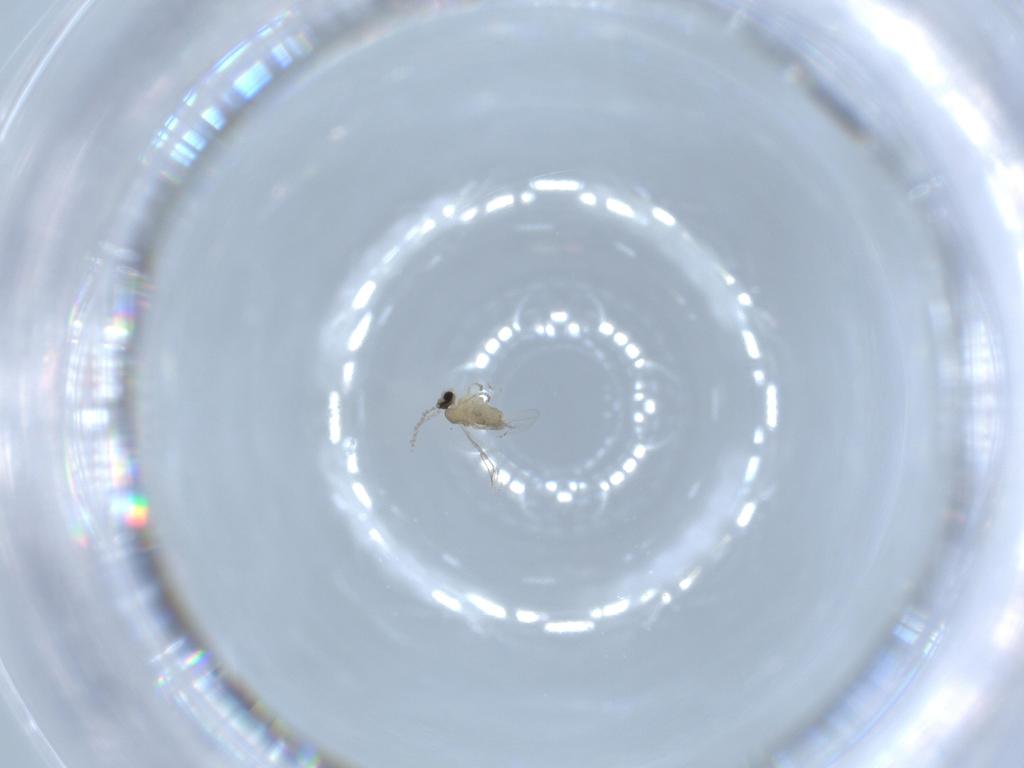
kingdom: Animalia
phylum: Arthropoda
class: Insecta
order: Diptera
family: Cecidomyiidae
